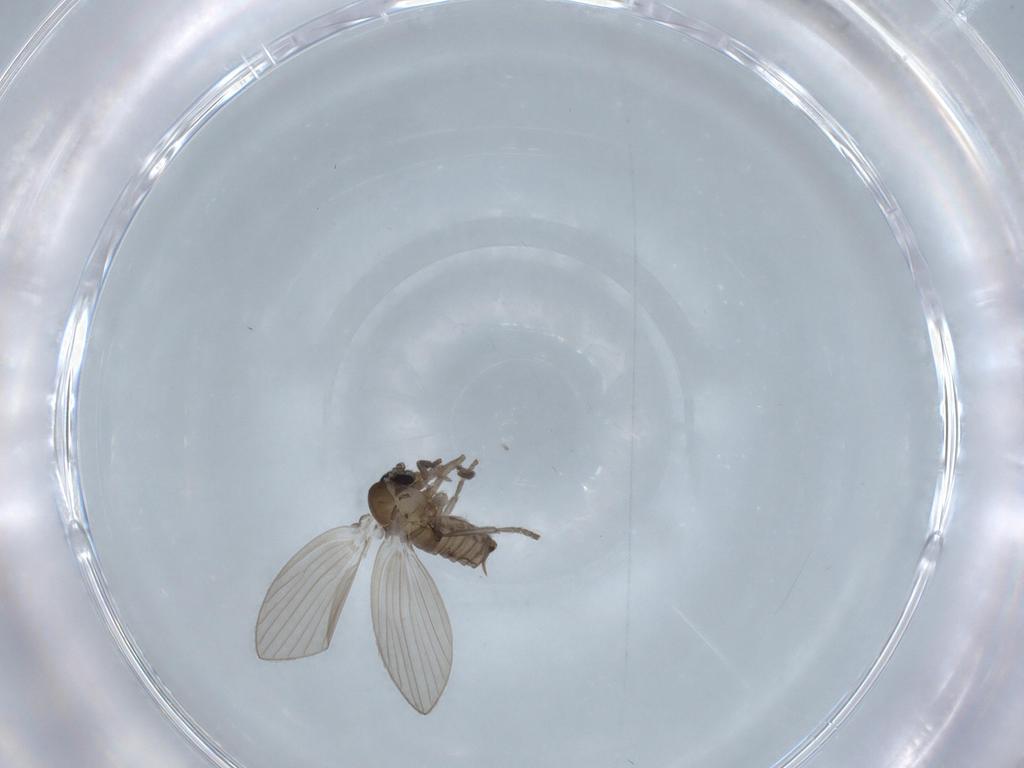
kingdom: Animalia
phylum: Arthropoda
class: Insecta
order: Diptera
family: Psychodidae
